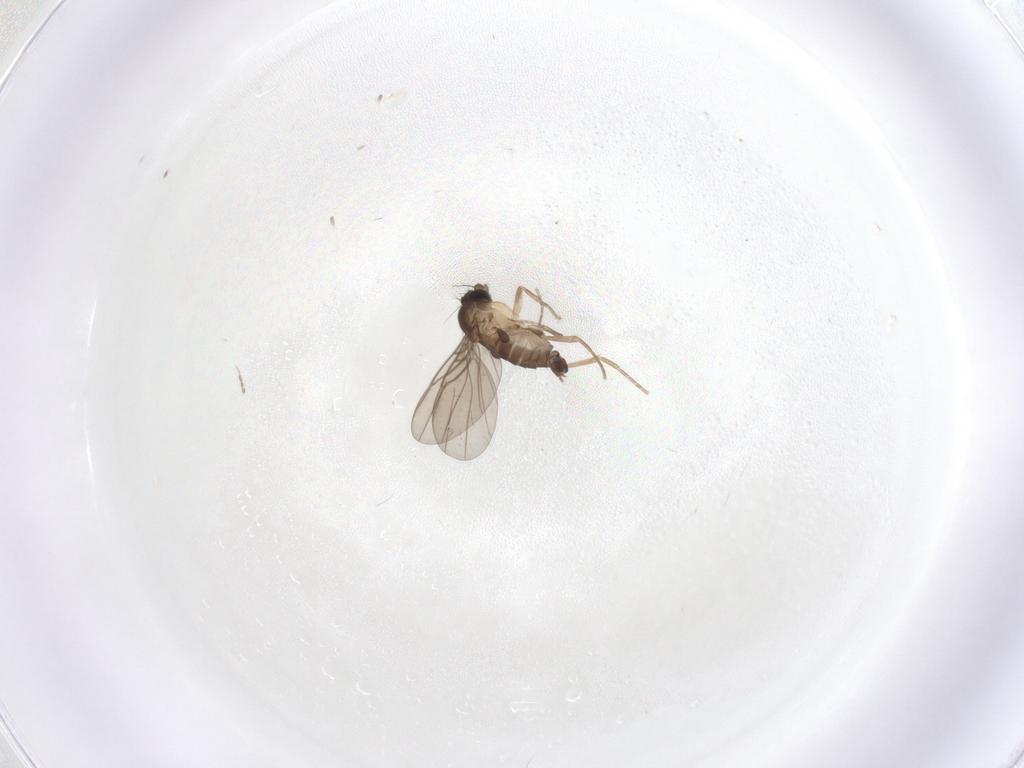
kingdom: Animalia
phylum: Arthropoda
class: Insecta
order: Diptera
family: Phoridae
